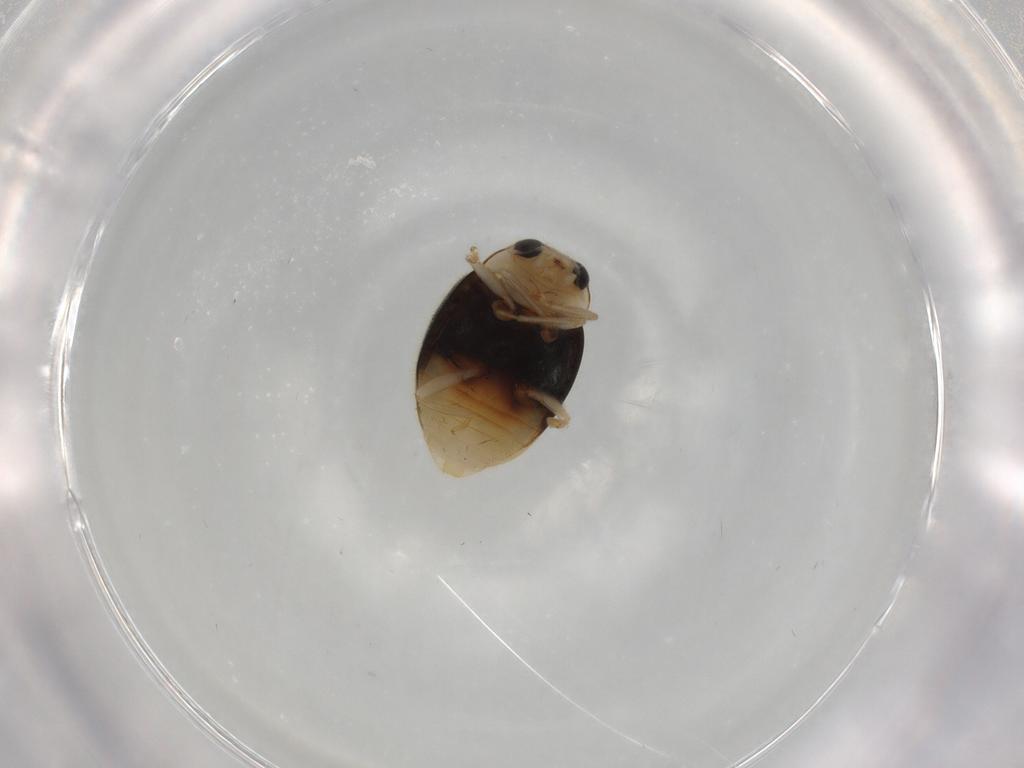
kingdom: Animalia
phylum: Arthropoda
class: Insecta
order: Coleoptera
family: Coccinellidae
